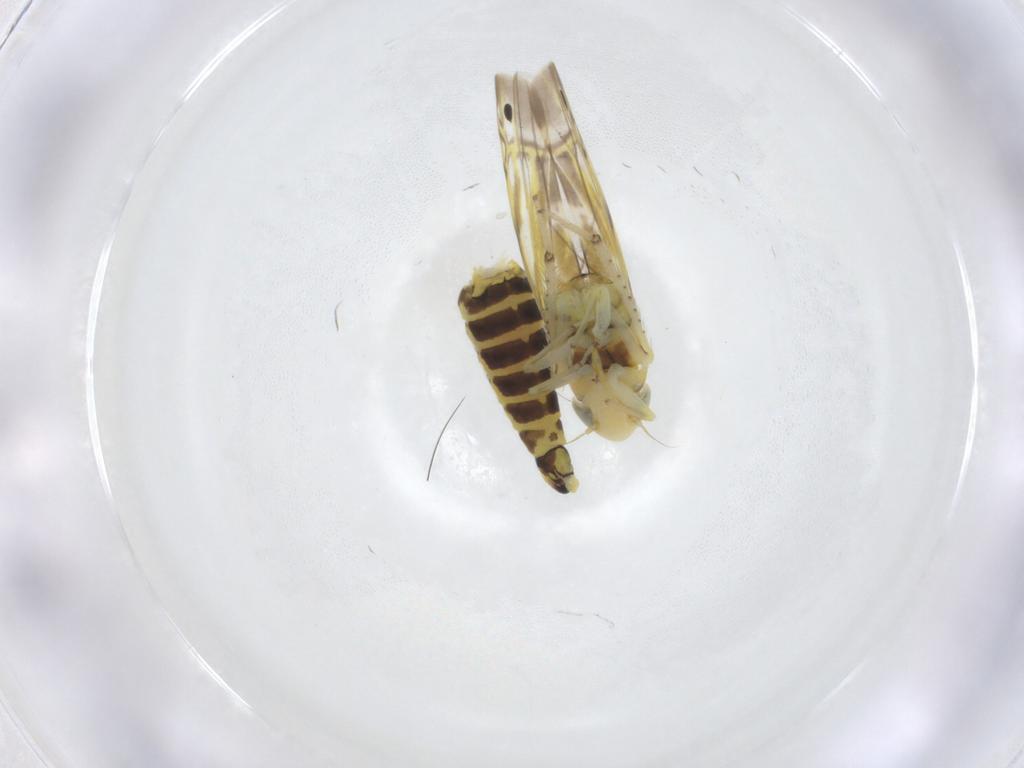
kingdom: Animalia
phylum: Arthropoda
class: Insecta
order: Hemiptera
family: Cicadellidae
